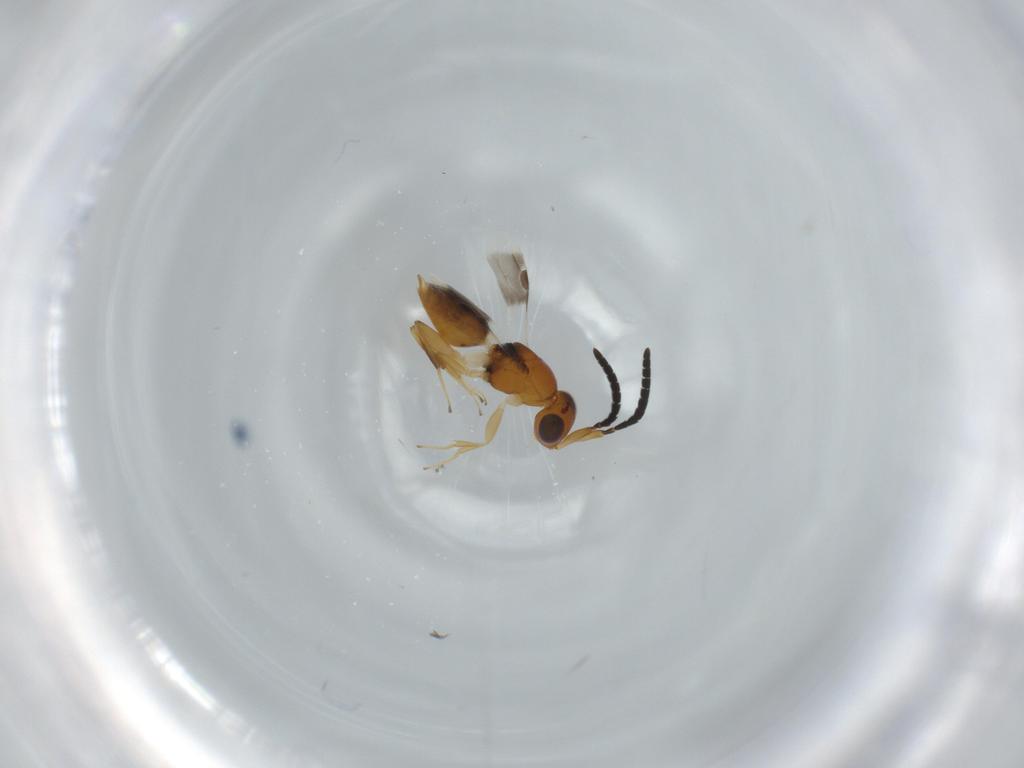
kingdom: Animalia
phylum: Arthropoda
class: Insecta
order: Hymenoptera
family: Megaspilidae
